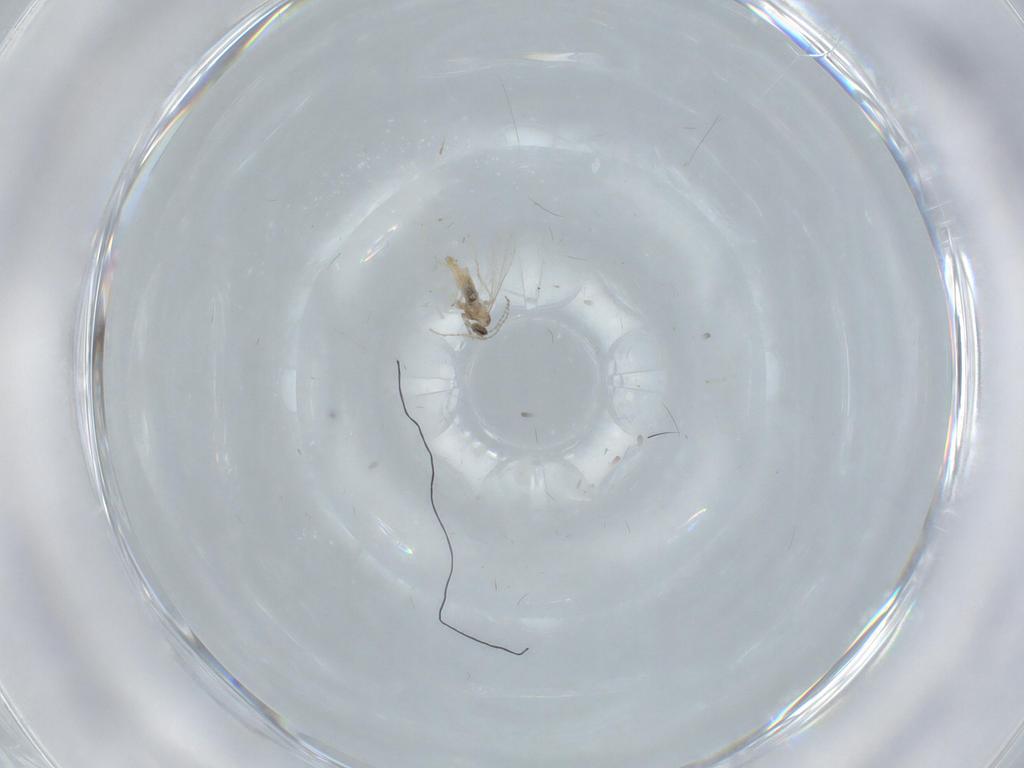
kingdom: Animalia
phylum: Arthropoda
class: Insecta
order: Diptera
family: Cecidomyiidae
